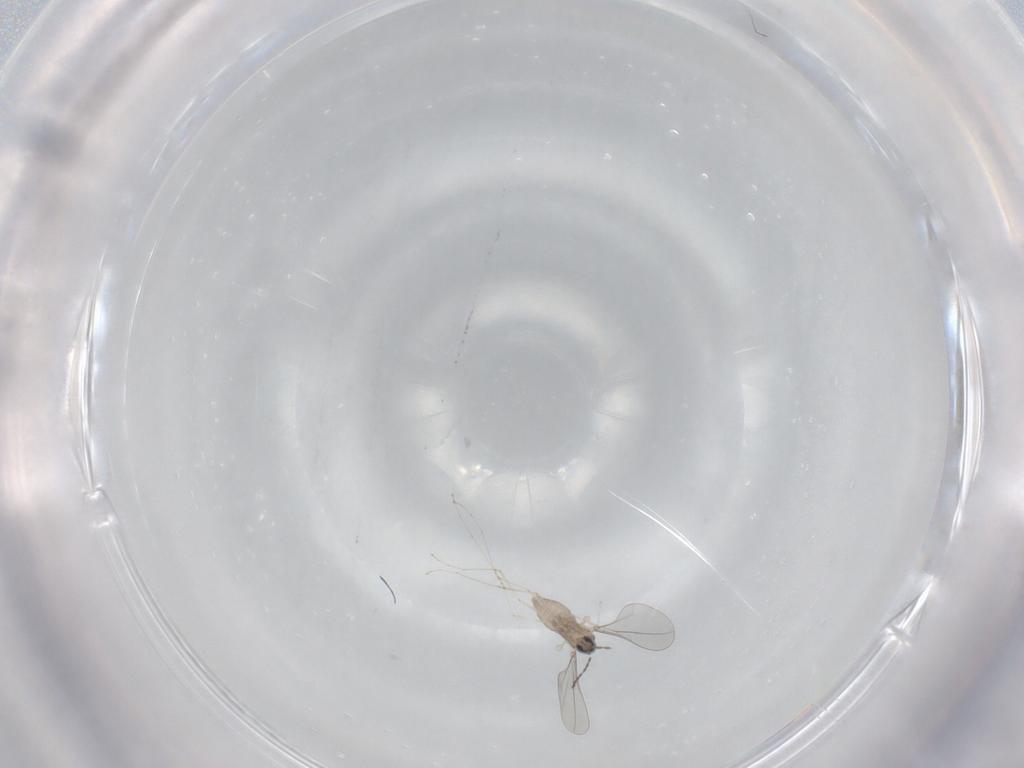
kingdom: Animalia
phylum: Arthropoda
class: Insecta
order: Diptera
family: Cecidomyiidae
